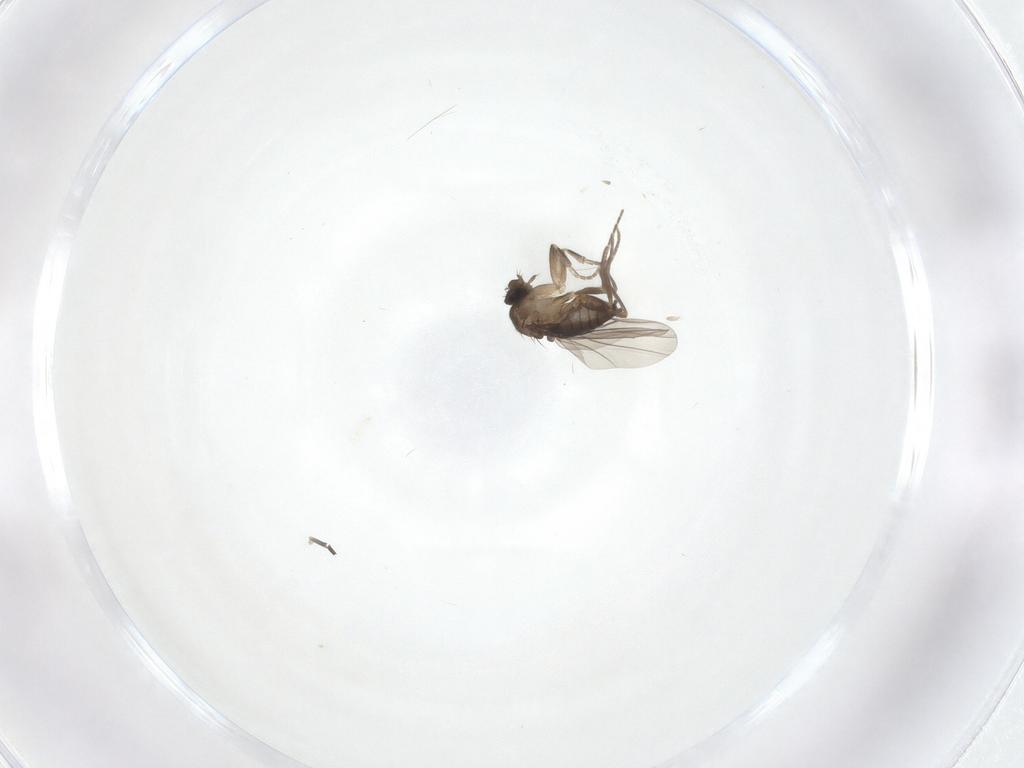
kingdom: Animalia
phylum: Arthropoda
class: Insecta
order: Diptera
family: Phoridae
